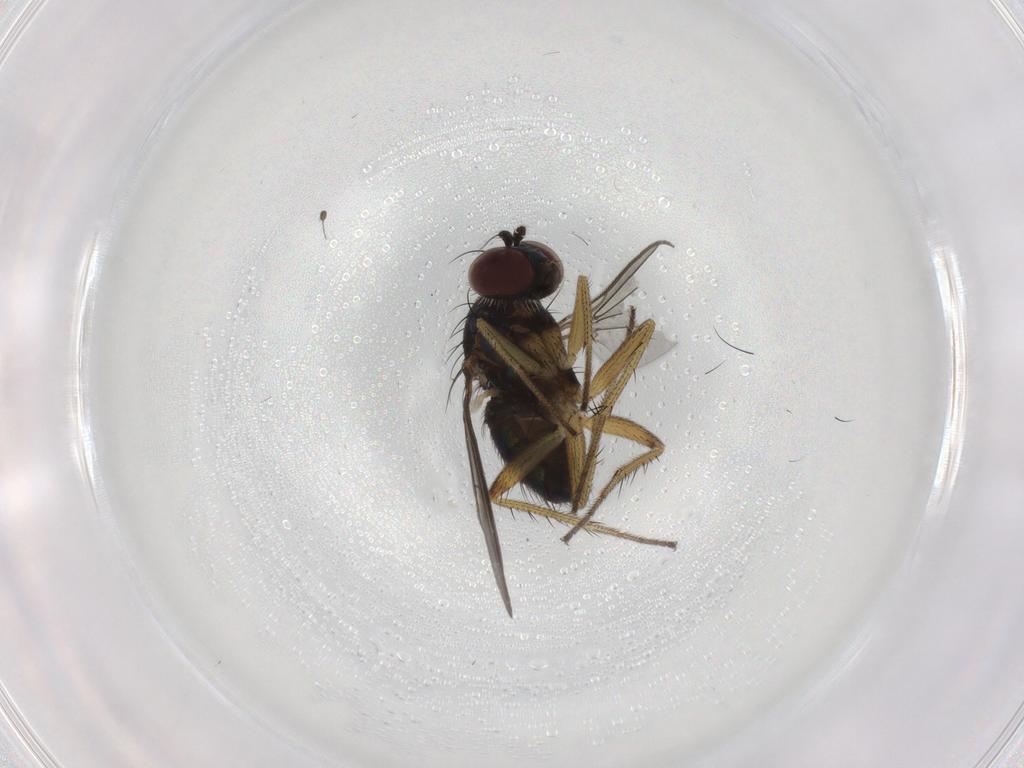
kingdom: Animalia
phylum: Arthropoda
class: Insecta
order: Diptera
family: Dolichopodidae
